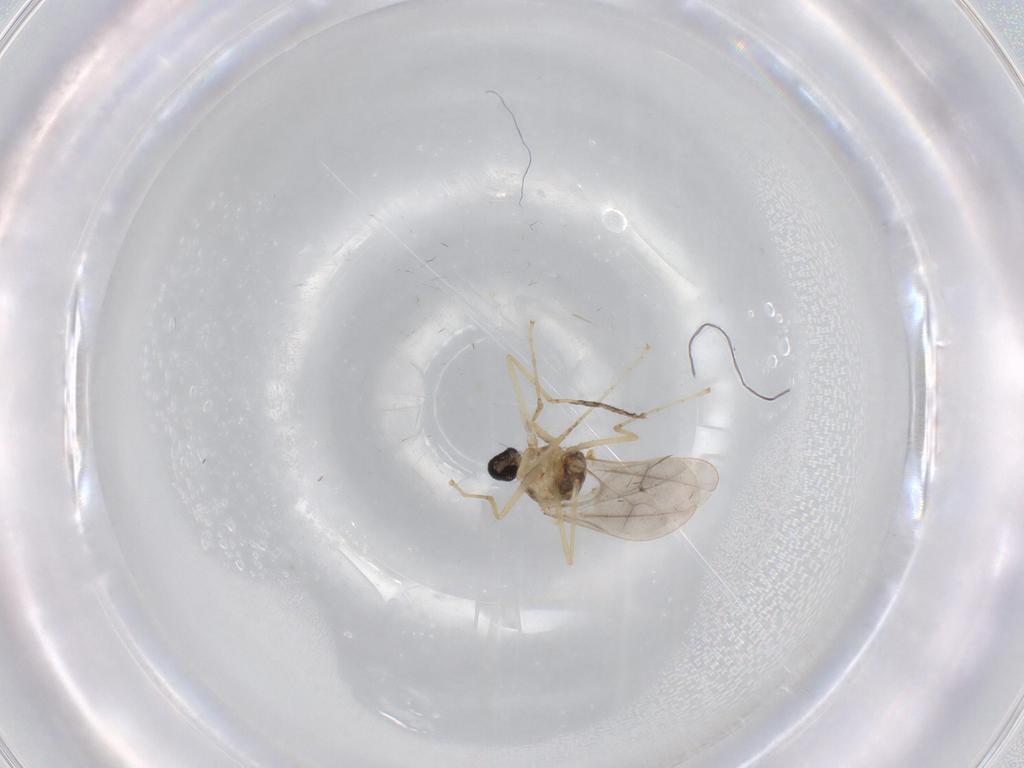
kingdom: Animalia
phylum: Arthropoda
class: Insecta
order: Diptera
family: Cecidomyiidae
